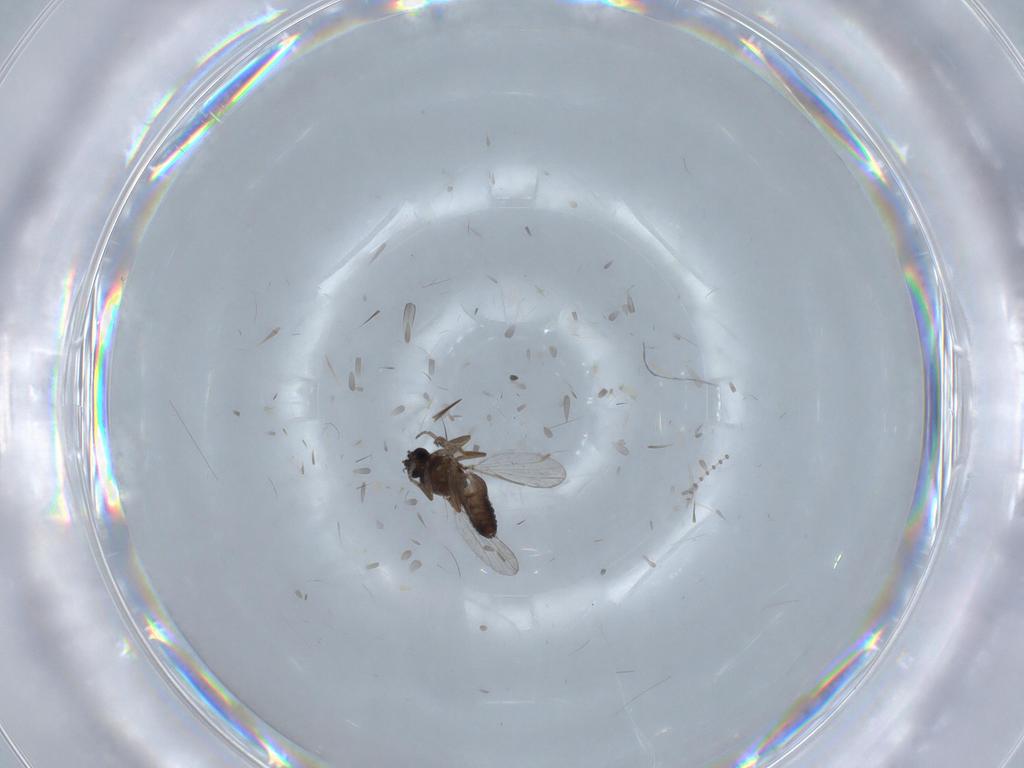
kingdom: Animalia
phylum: Arthropoda
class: Insecta
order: Diptera
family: Ceratopogonidae
